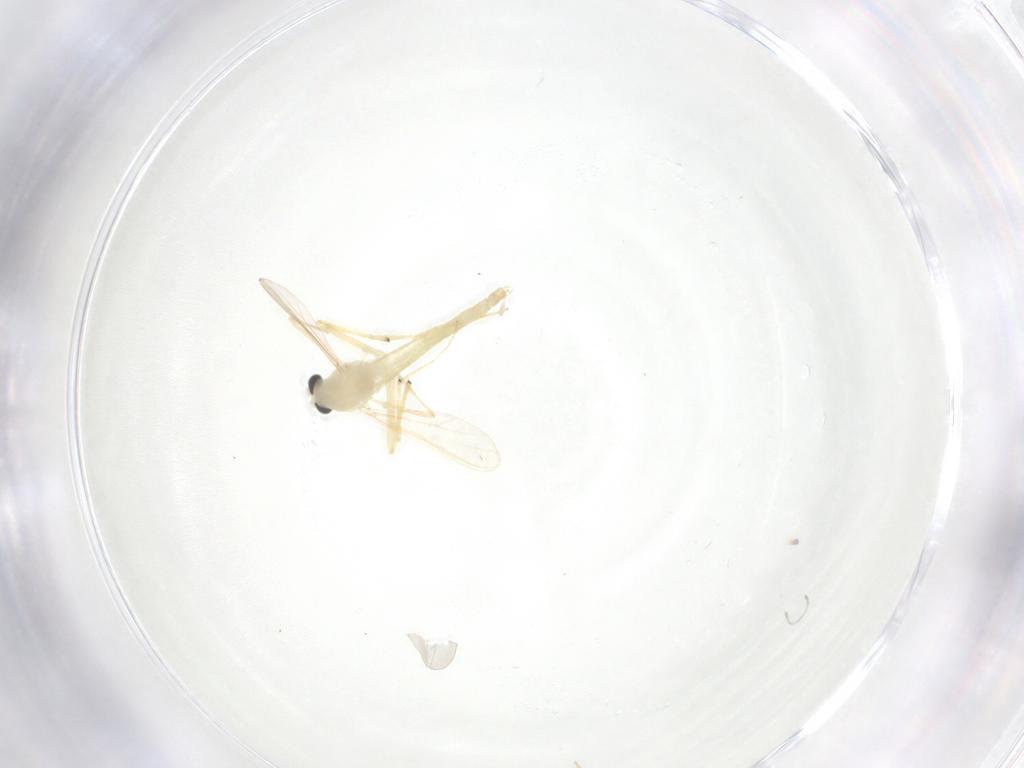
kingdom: Animalia
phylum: Arthropoda
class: Insecta
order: Diptera
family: Chironomidae
